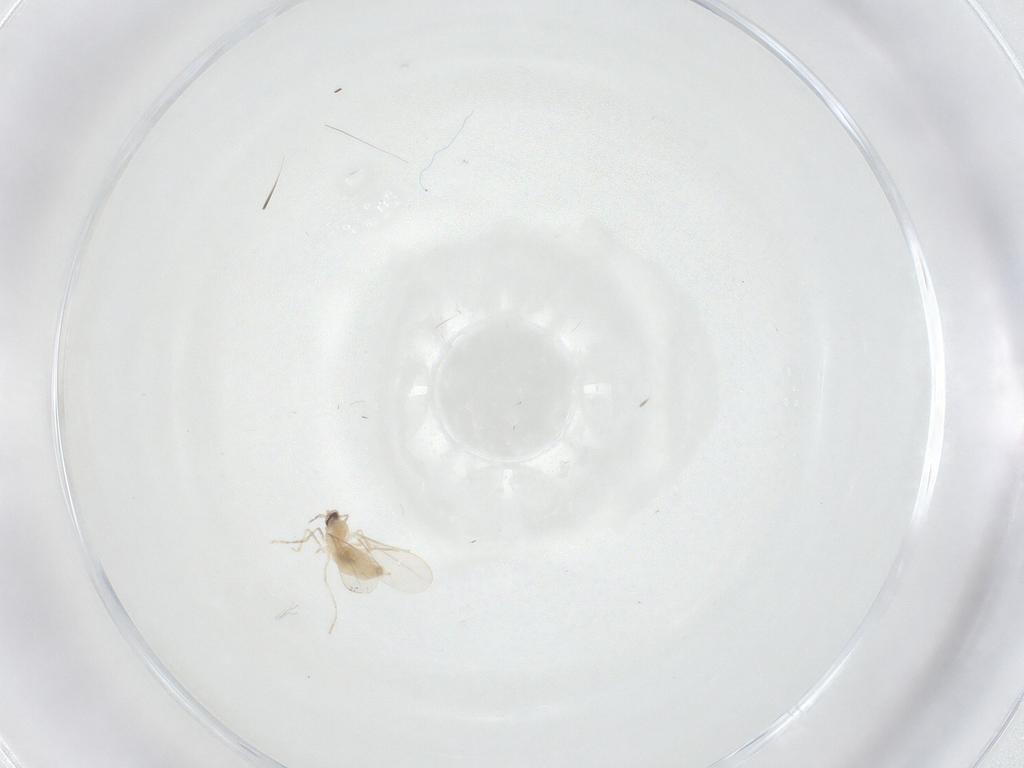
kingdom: Animalia
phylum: Arthropoda
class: Insecta
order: Diptera
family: Cecidomyiidae
